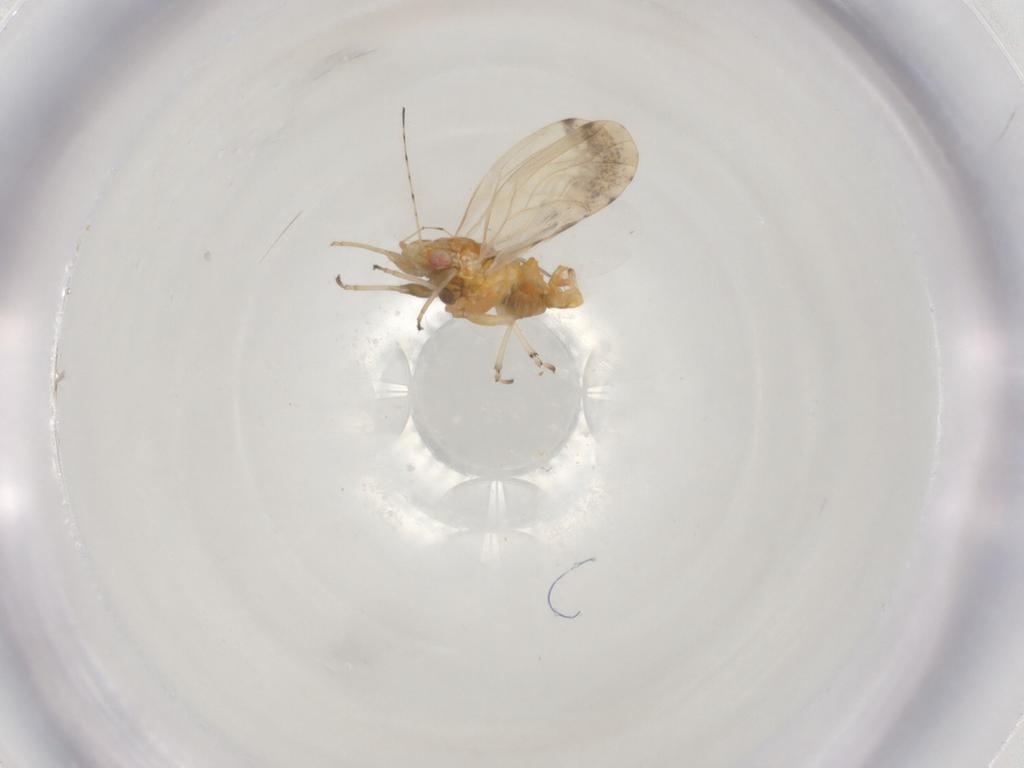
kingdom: Animalia
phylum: Arthropoda
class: Insecta
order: Hemiptera
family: Psyllidae
